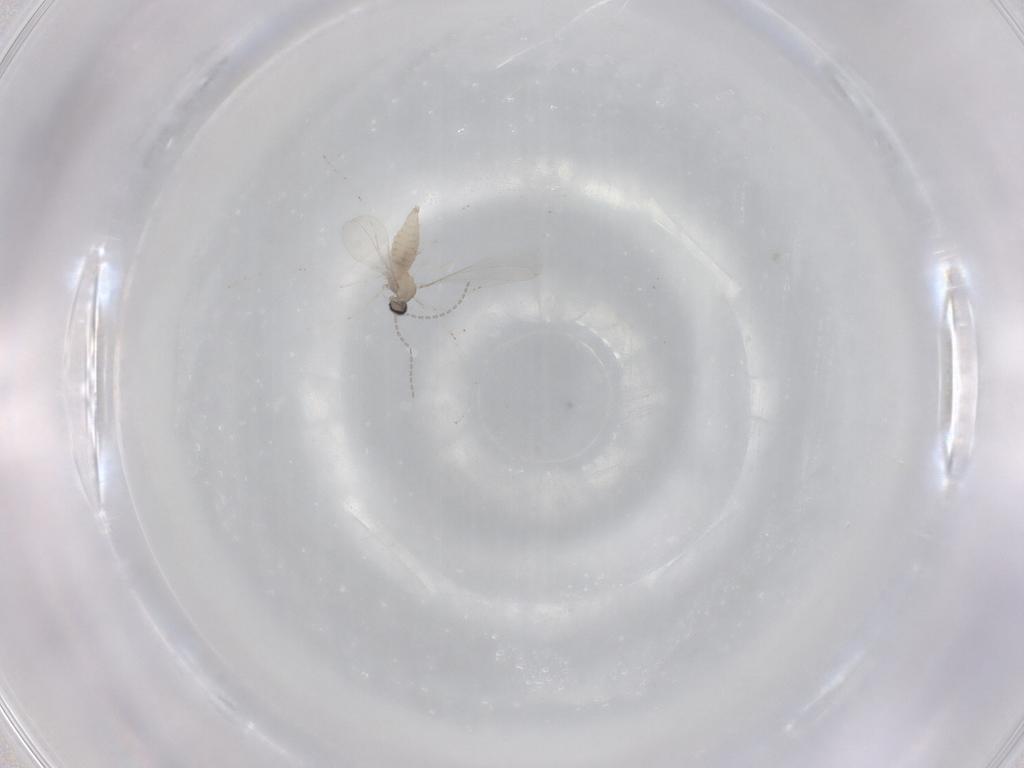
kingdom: Animalia
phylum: Arthropoda
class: Insecta
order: Diptera
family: Cecidomyiidae
